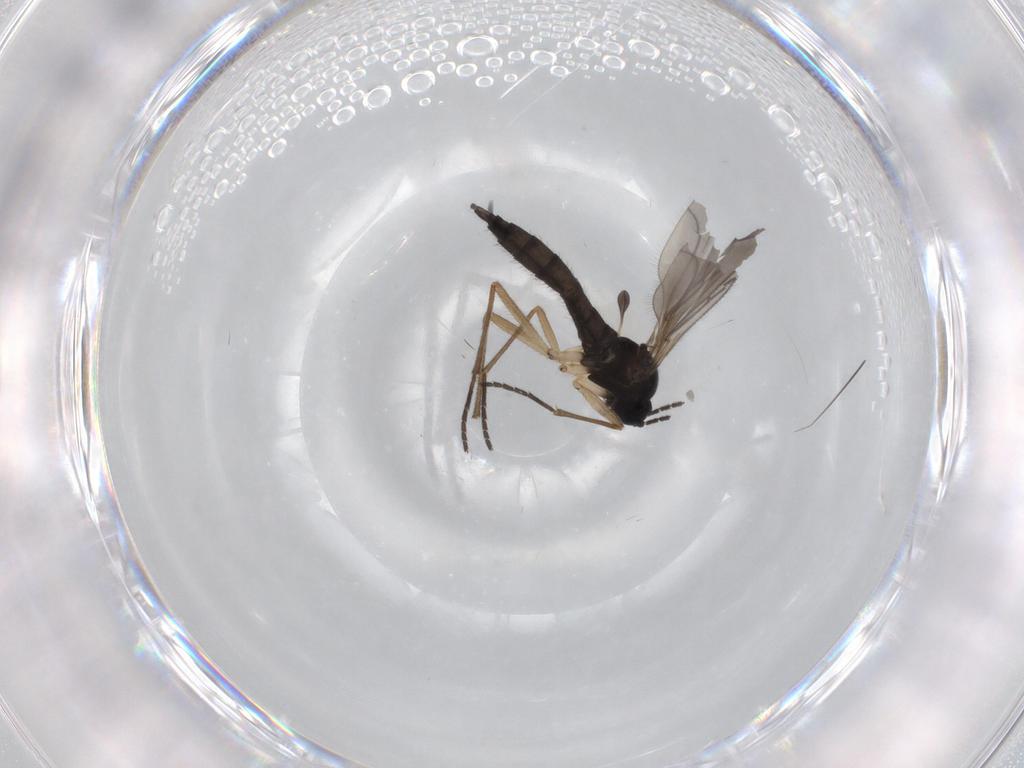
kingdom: Animalia
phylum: Arthropoda
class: Insecta
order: Diptera
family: Sciaridae
